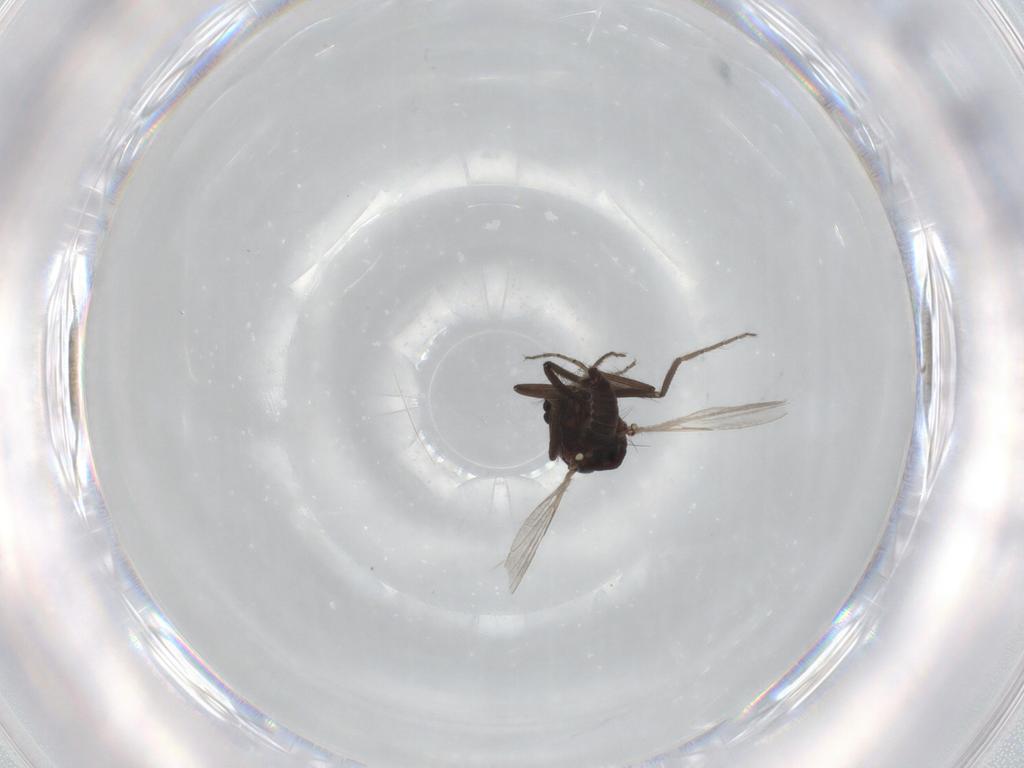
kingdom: Animalia
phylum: Arthropoda
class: Insecta
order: Diptera
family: Ceratopogonidae
